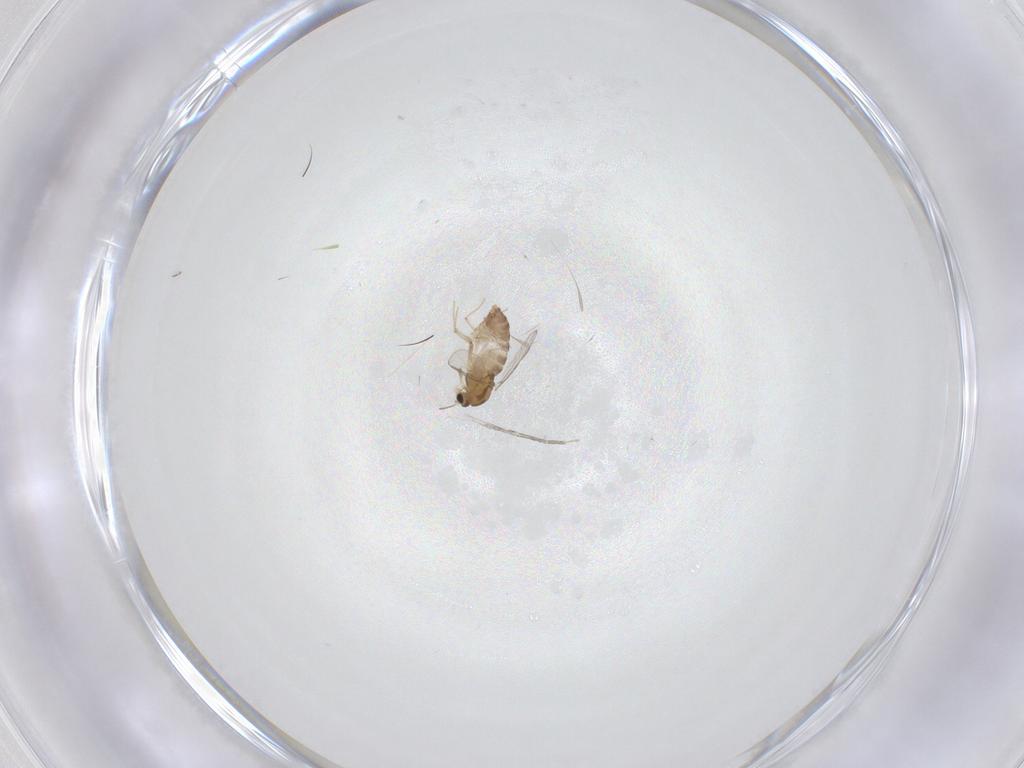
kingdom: Animalia
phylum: Arthropoda
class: Insecta
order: Diptera
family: Cecidomyiidae
